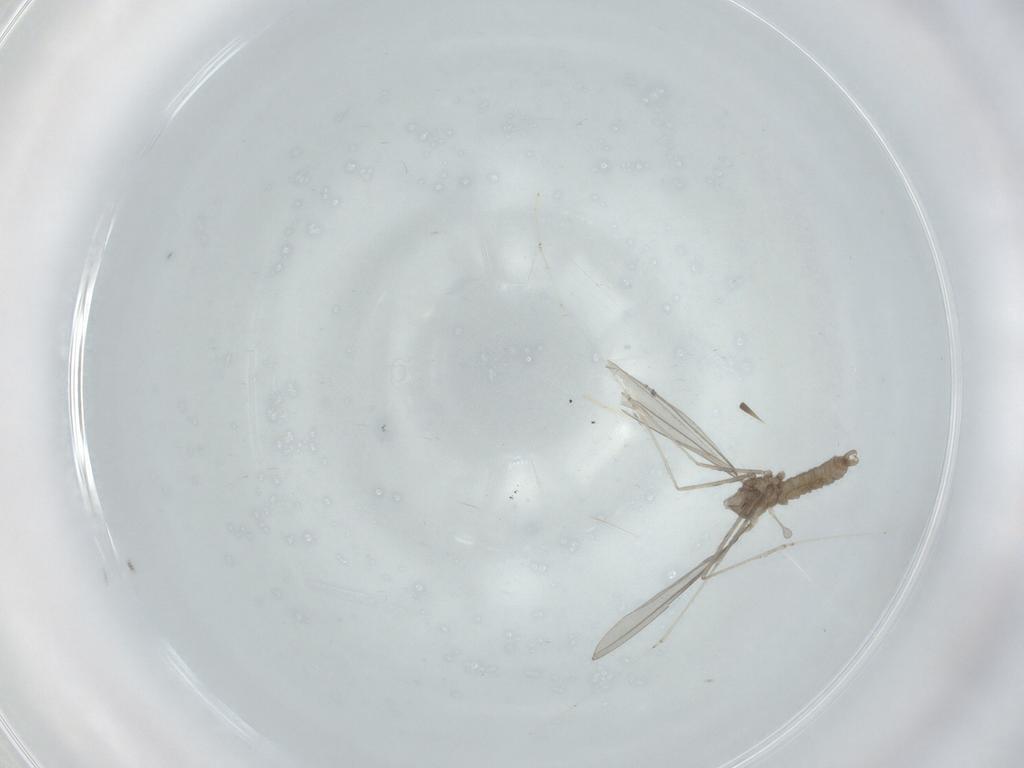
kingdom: Animalia
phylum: Arthropoda
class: Insecta
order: Diptera
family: Cecidomyiidae
